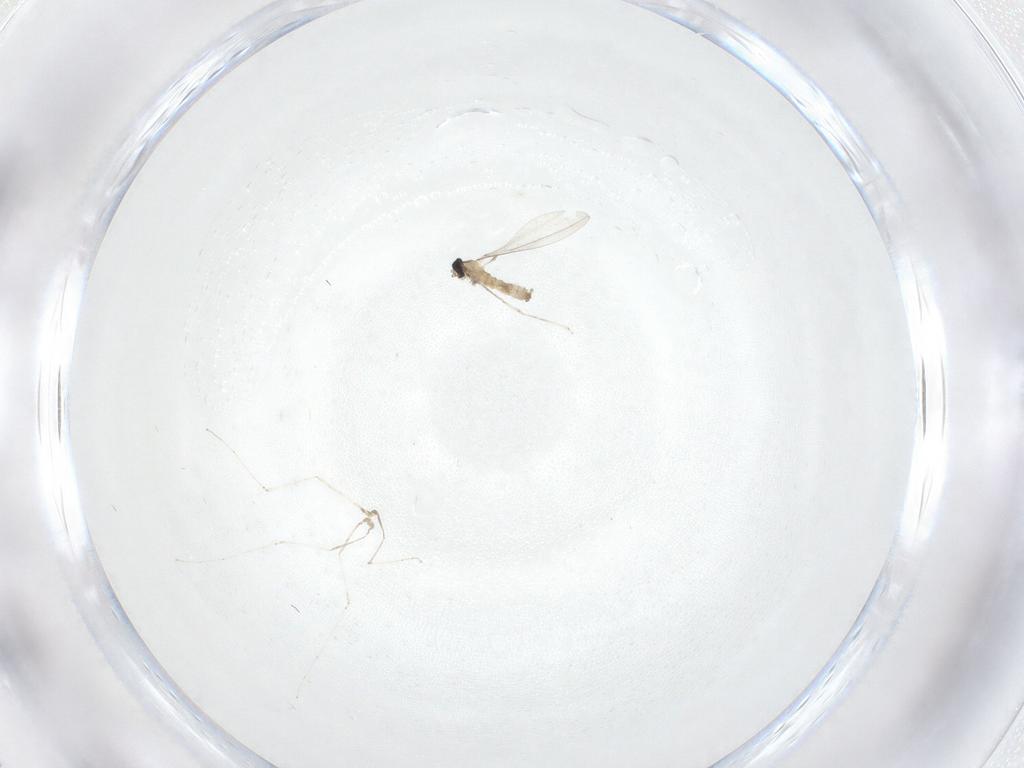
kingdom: Animalia
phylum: Arthropoda
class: Insecta
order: Diptera
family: Cecidomyiidae
